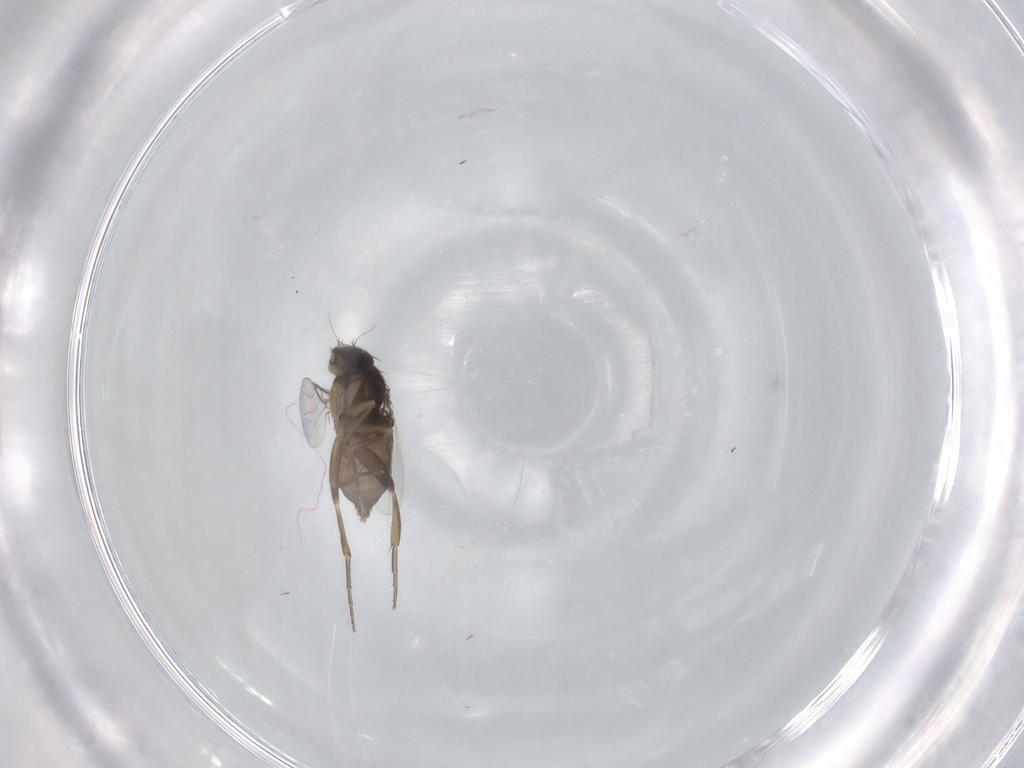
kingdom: Animalia
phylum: Arthropoda
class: Insecta
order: Diptera
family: Phoridae
